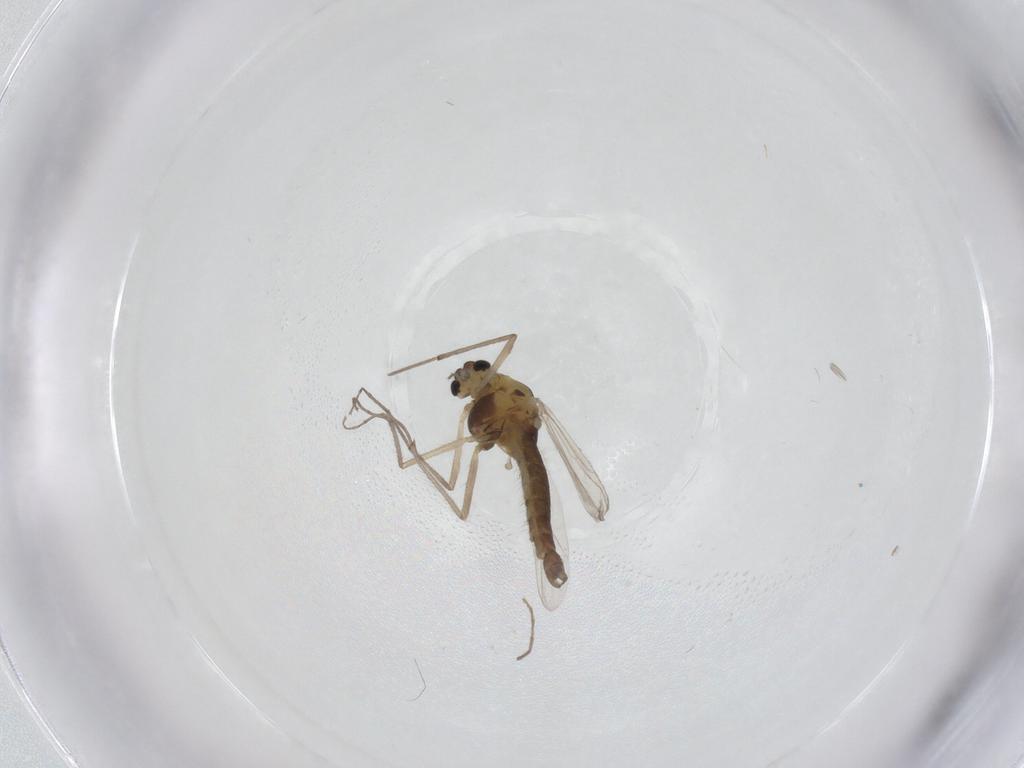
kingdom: Animalia
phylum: Arthropoda
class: Insecta
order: Diptera
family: Chironomidae
